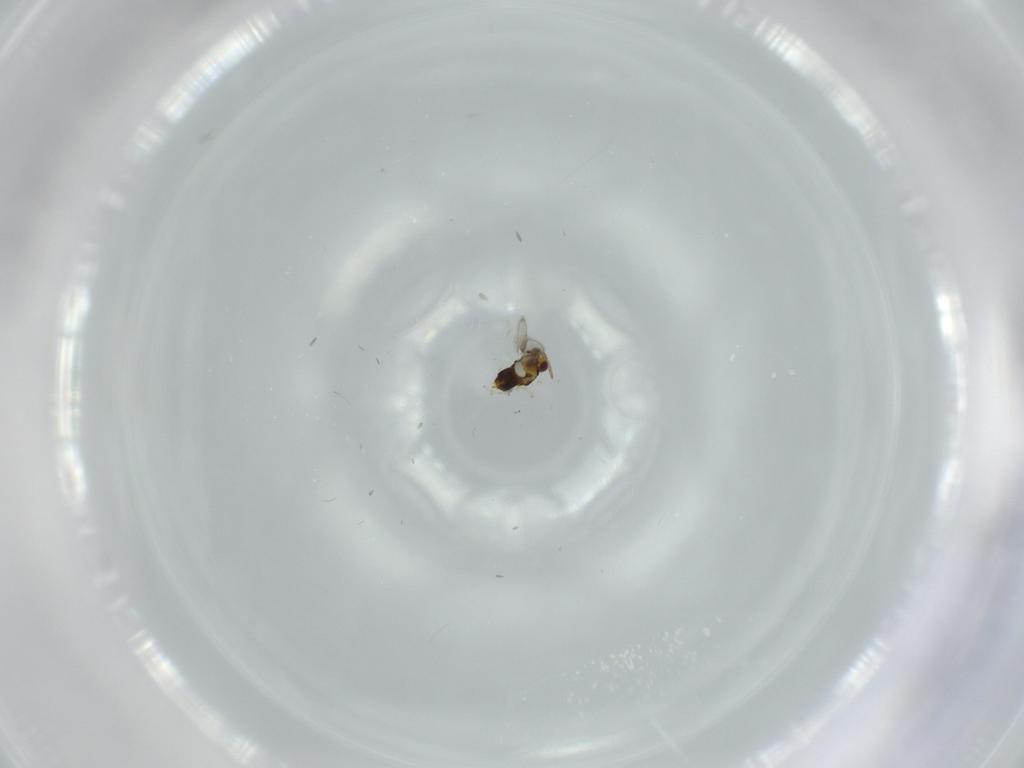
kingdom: Animalia
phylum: Arthropoda
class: Insecta
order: Hymenoptera
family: Aphelinidae
